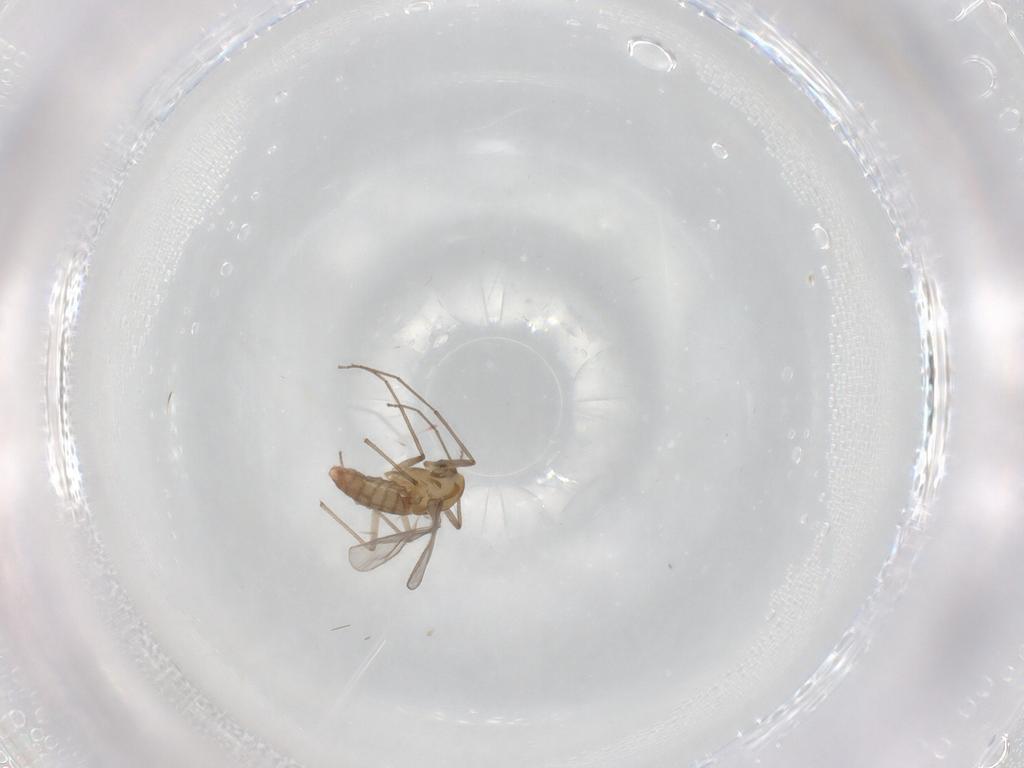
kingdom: Animalia
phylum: Arthropoda
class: Insecta
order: Diptera
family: Chironomidae
